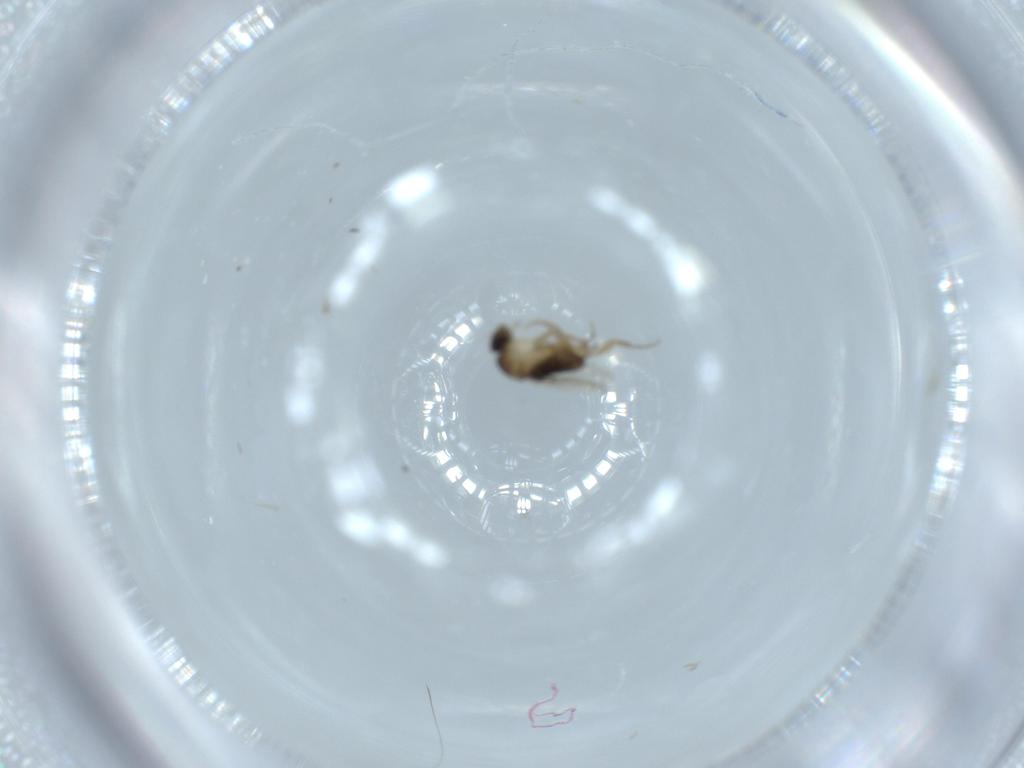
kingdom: Animalia
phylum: Arthropoda
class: Insecta
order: Diptera
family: Phoridae
